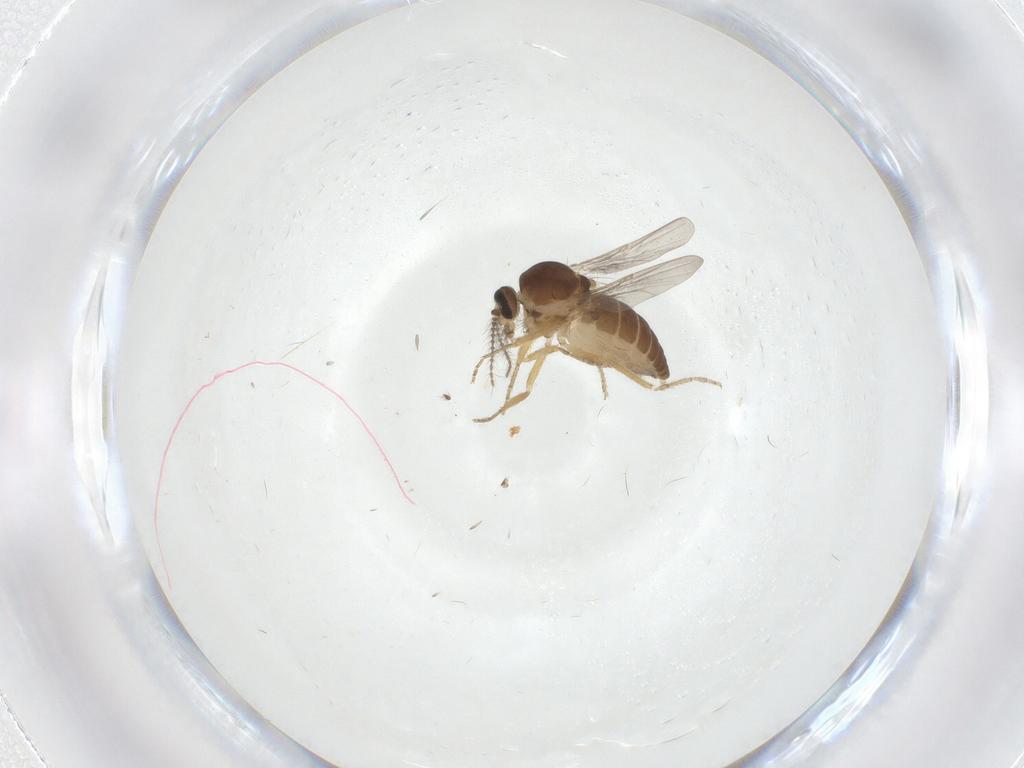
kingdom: Animalia
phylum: Arthropoda
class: Insecta
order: Diptera
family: Ceratopogonidae
